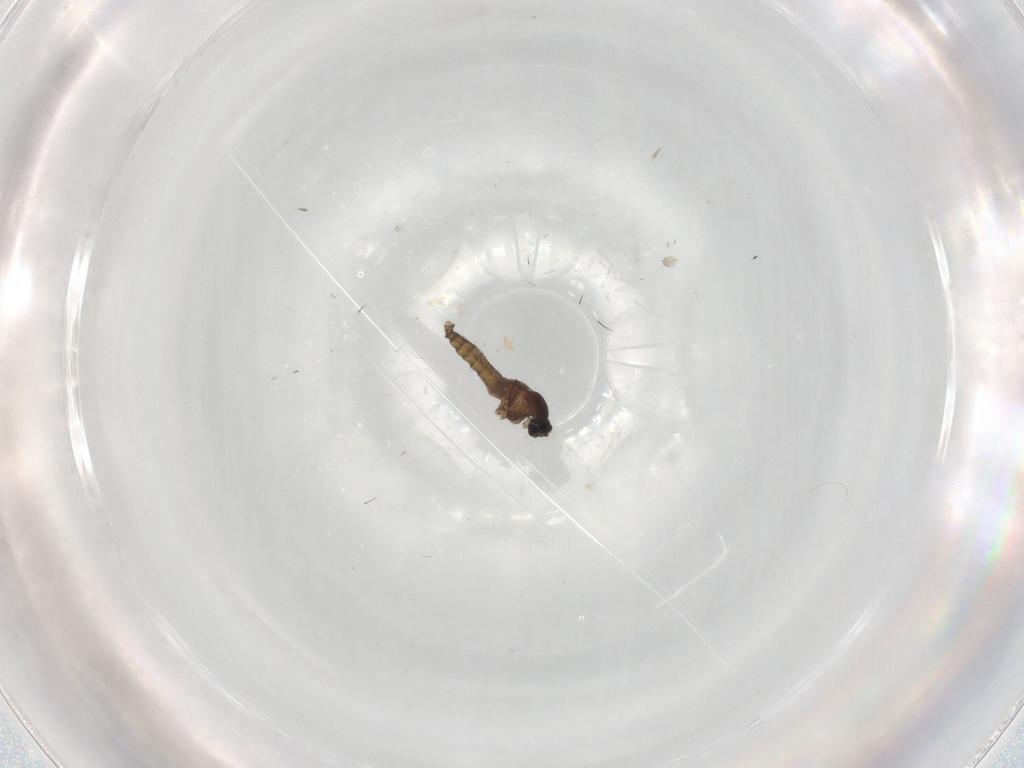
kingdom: Animalia
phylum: Arthropoda
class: Insecta
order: Diptera
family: Cecidomyiidae
